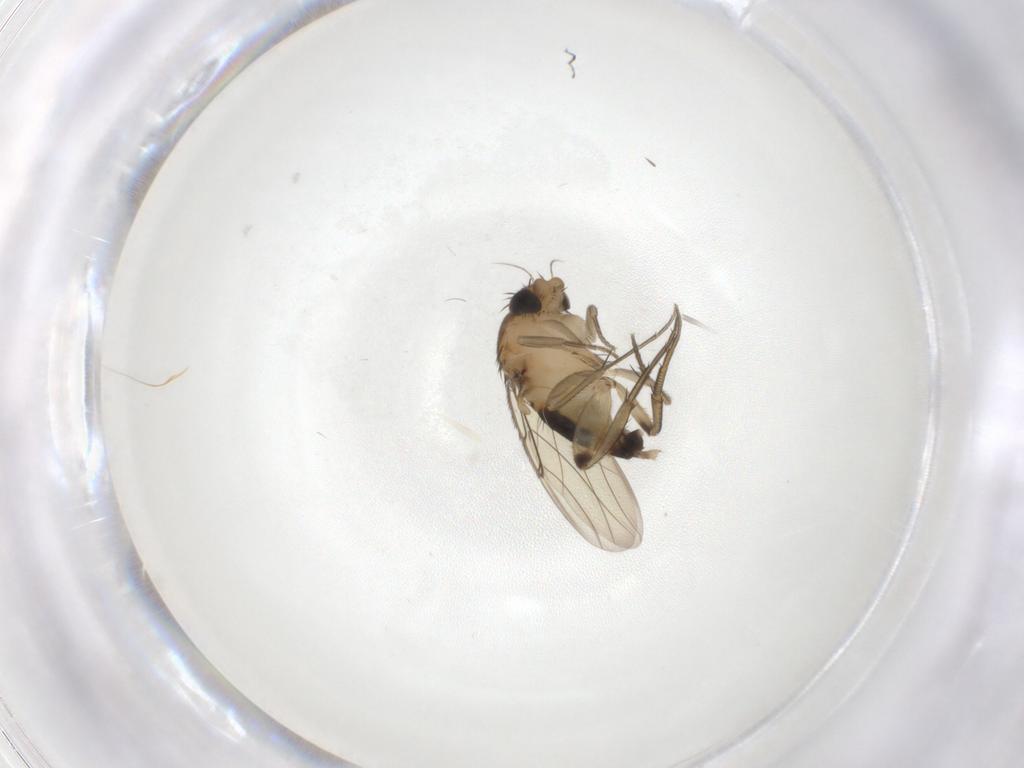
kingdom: Animalia
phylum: Arthropoda
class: Insecta
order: Diptera
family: Phoridae
